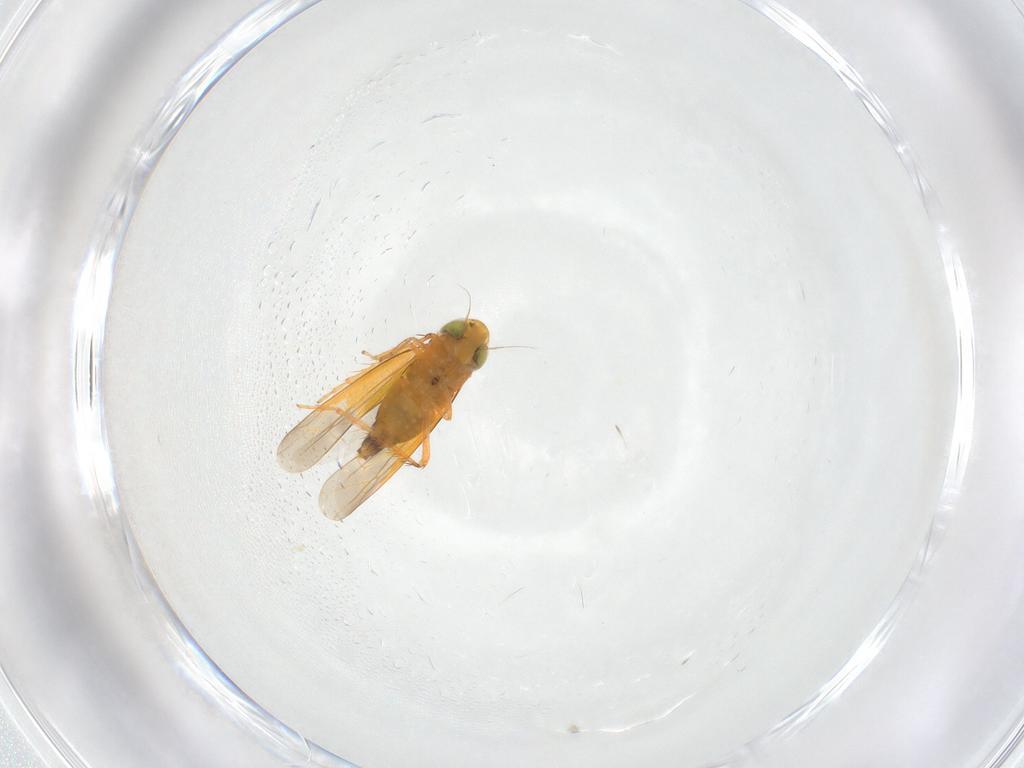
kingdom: Animalia
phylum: Arthropoda
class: Insecta
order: Hemiptera
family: Cicadellidae
